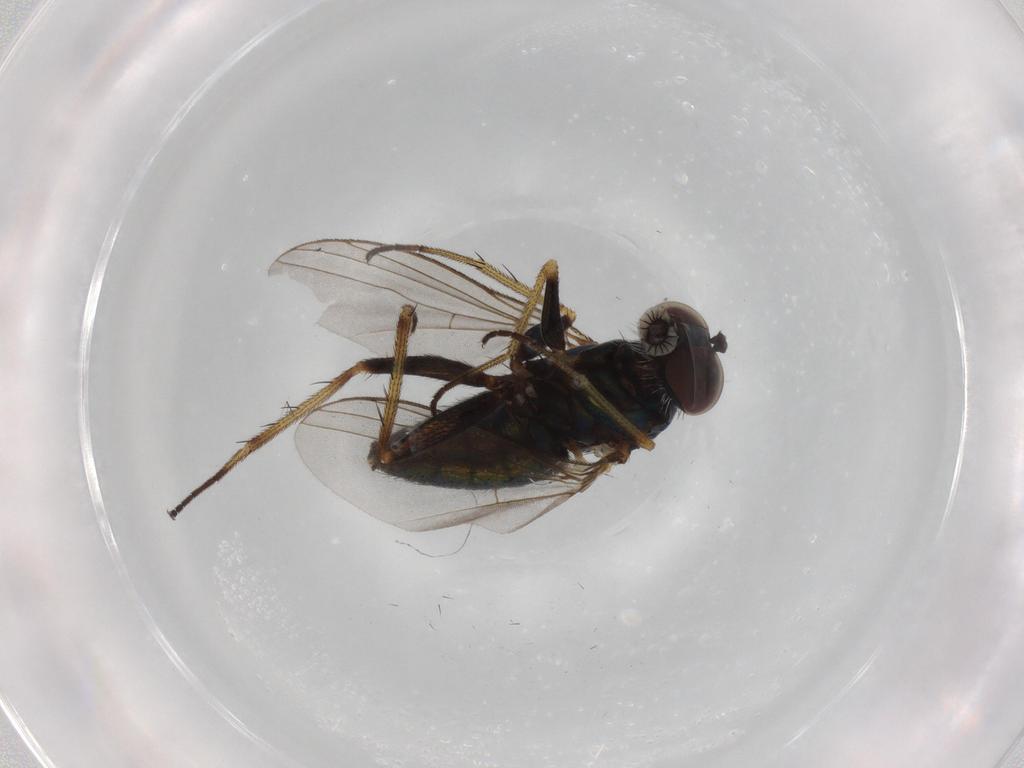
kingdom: Animalia
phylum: Arthropoda
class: Insecta
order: Diptera
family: Dolichopodidae
